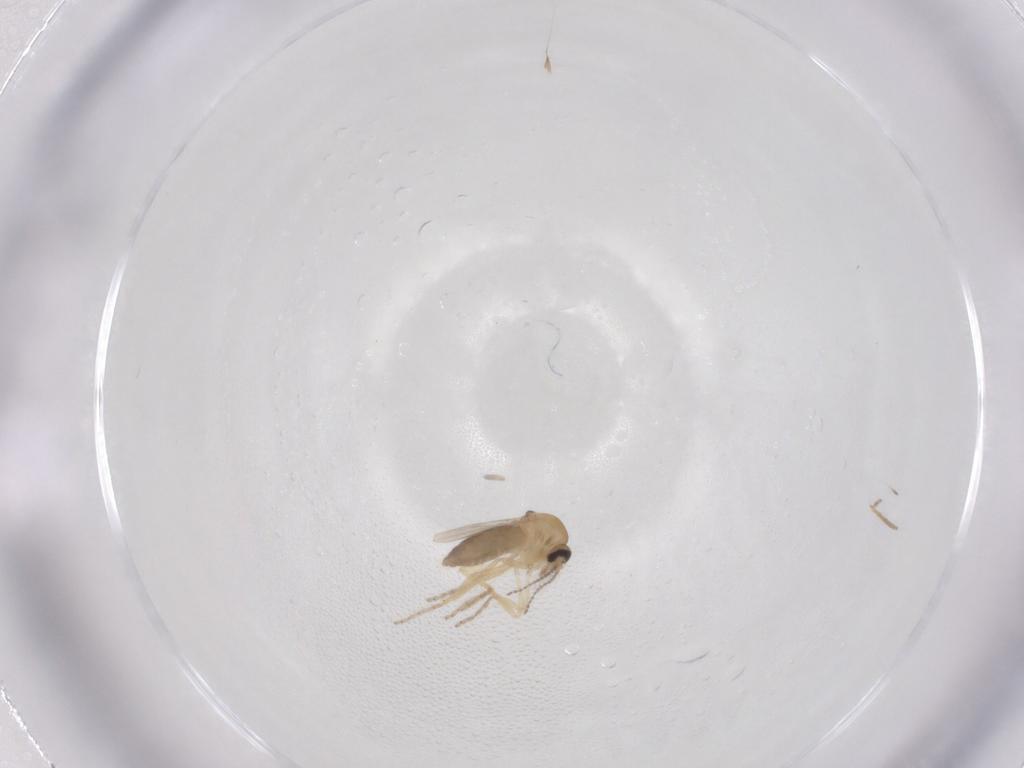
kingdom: Animalia
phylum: Arthropoda
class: Insecta
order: Diptera
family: Ceratopogonidae
